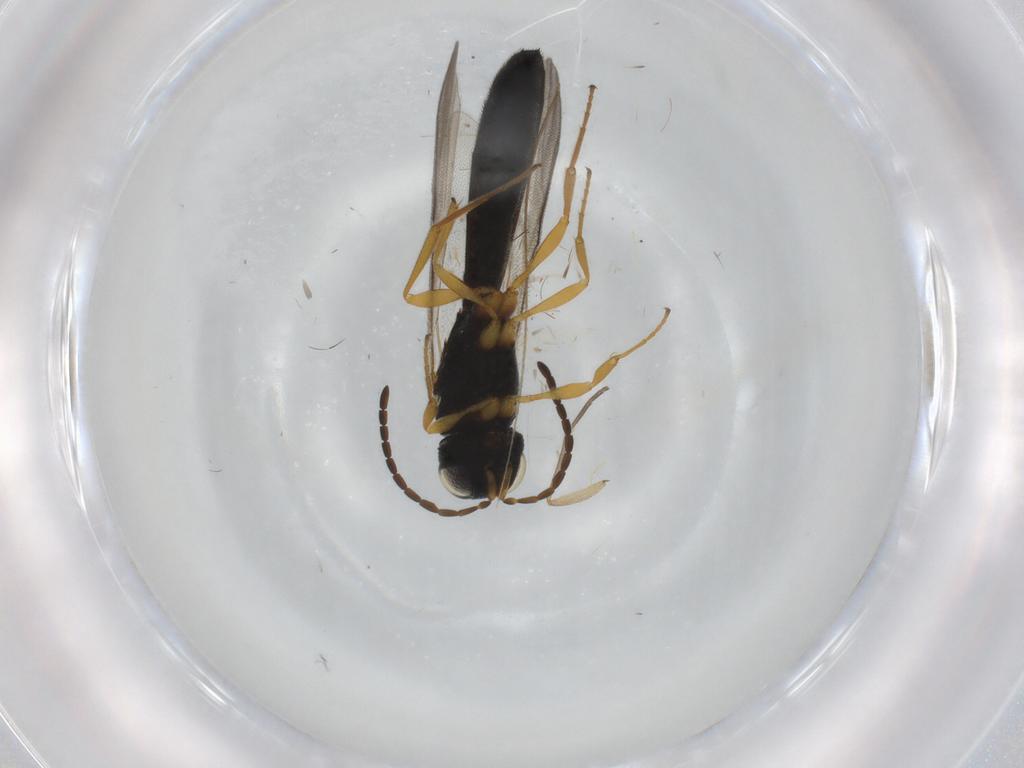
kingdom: Animalia
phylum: Arthropoda
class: Insecta
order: Hymenoptera
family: Scelionidae
